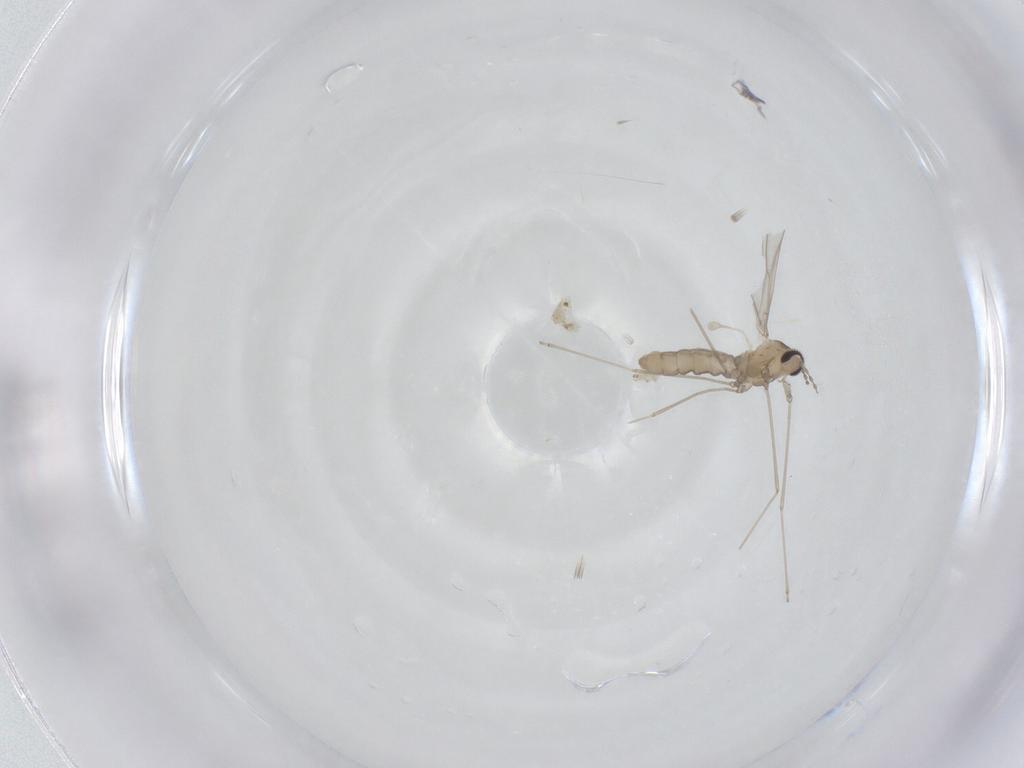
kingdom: Animalia
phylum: Arthropoda
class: Insecta
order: Diptera
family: Cecidomyiidae
